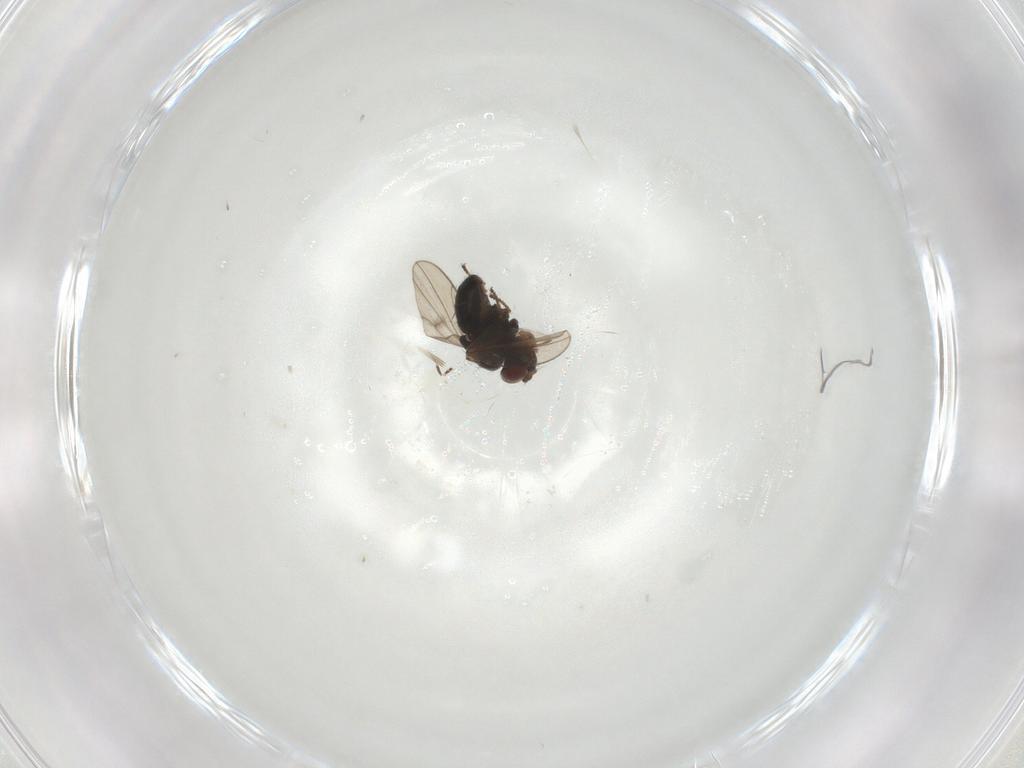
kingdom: Animalia
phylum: Arthropoda
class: Insecta
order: Diptera
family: Ephydridae
